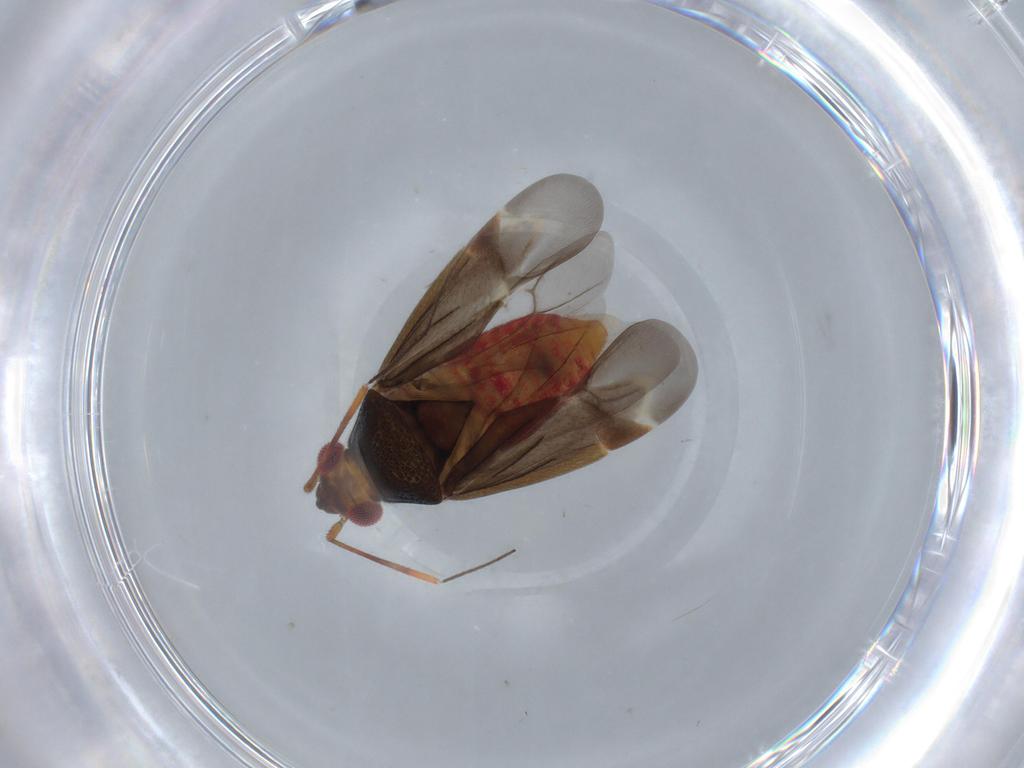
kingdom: Animalia
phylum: Arthropoda
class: Insecta
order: Hemiptera
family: Miridae
